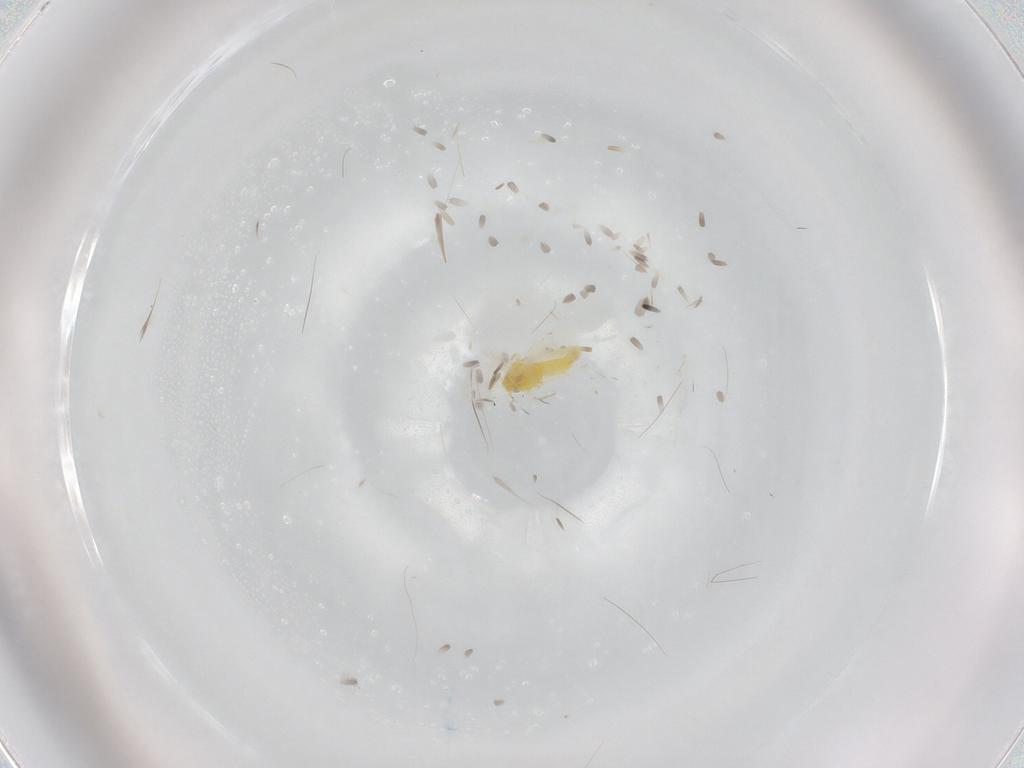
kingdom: Animalia
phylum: Arthropoda
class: Insecta
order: Hemiptera
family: Aleyrodidae
